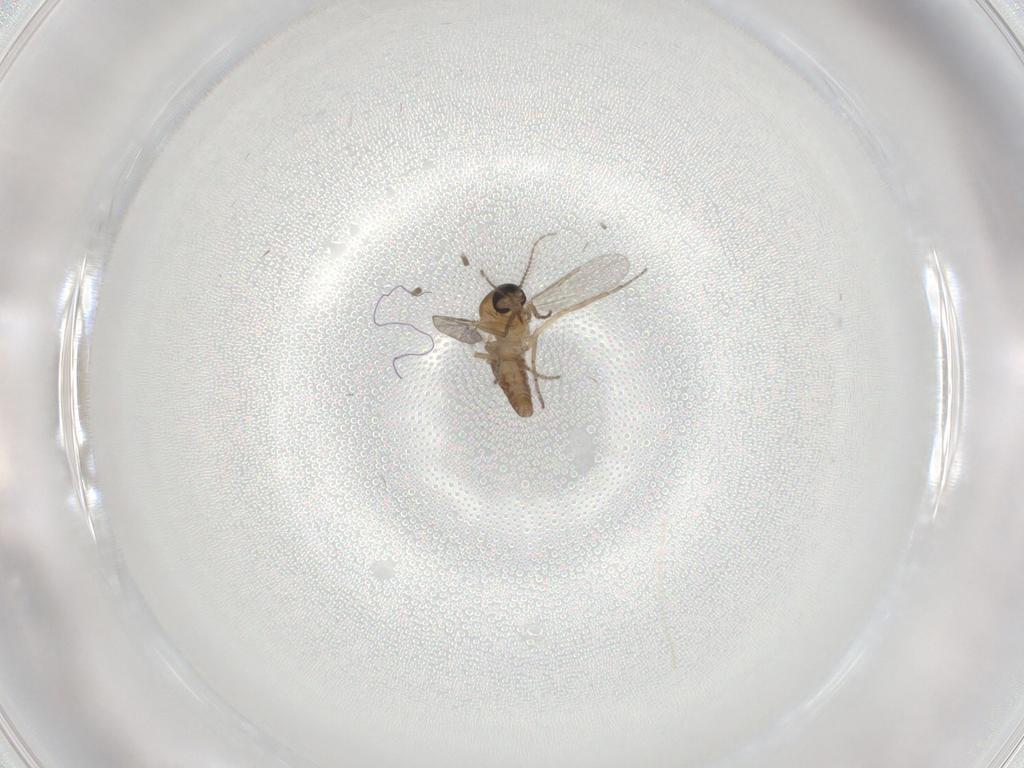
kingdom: Animalia
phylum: Arthropoda
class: Insecta
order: Diptera
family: Ceratopogonidae
